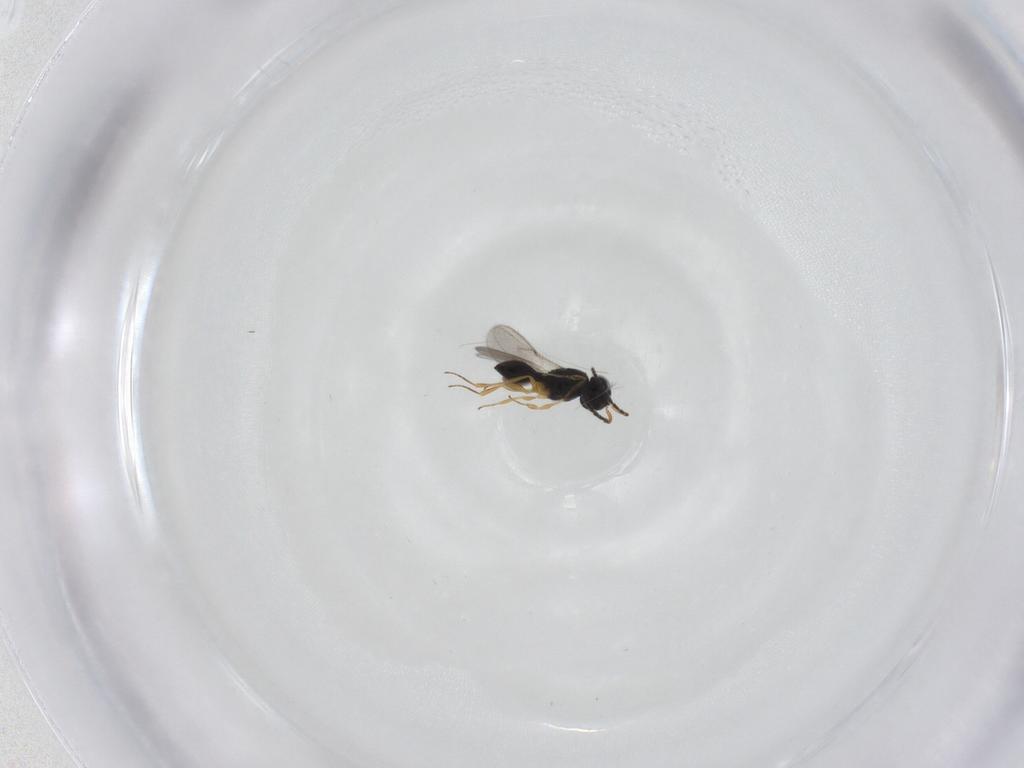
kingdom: Animalia
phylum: Arthropoda
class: Insecta
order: Hymenoptera
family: Scelionidae
